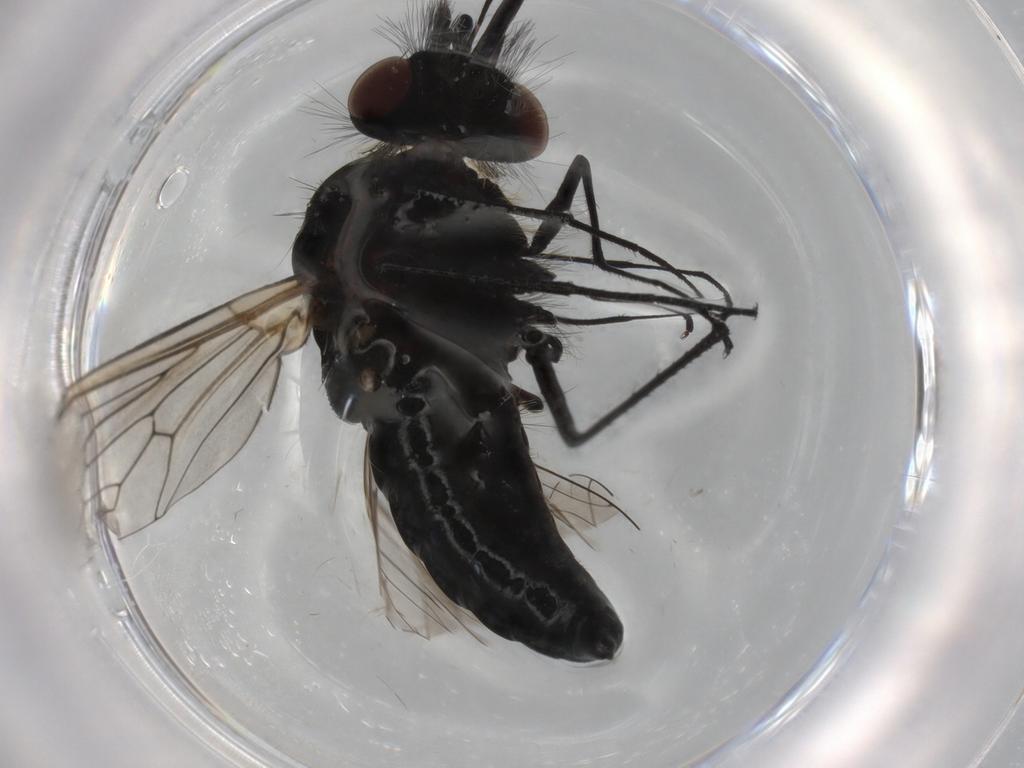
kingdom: Animalia
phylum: Arthropoda
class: Insecta
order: Diptera
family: Bombyliidae
